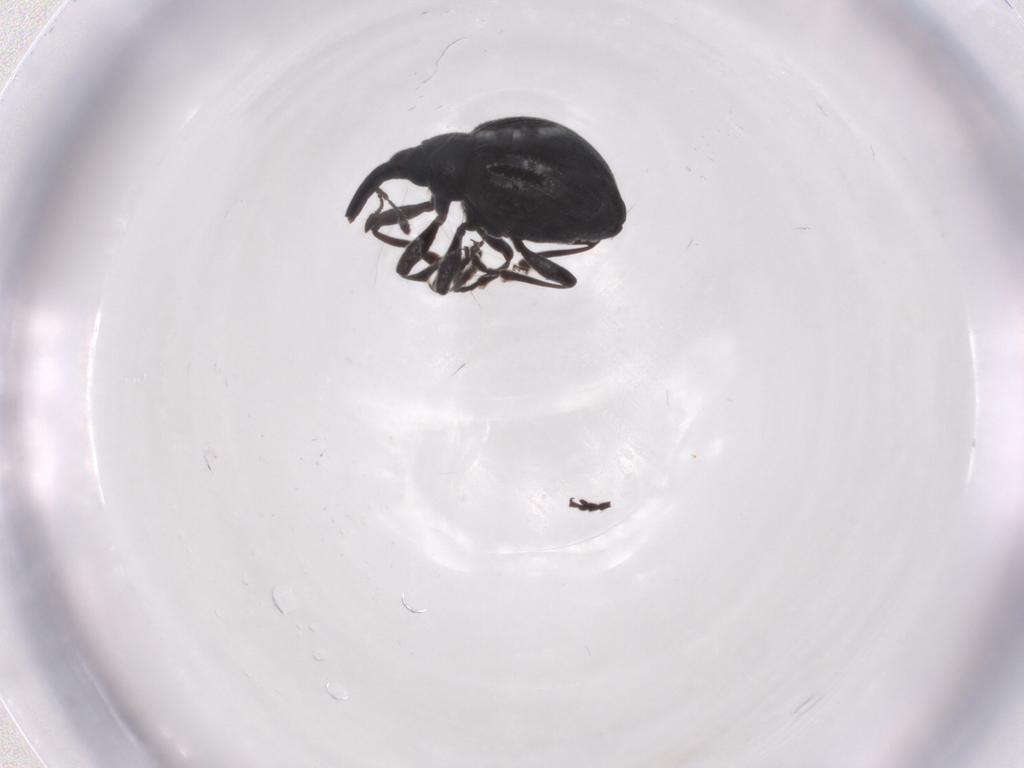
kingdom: Animalia
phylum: Arthropoda
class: Insecta
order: Coleoptera
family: Brentidae
